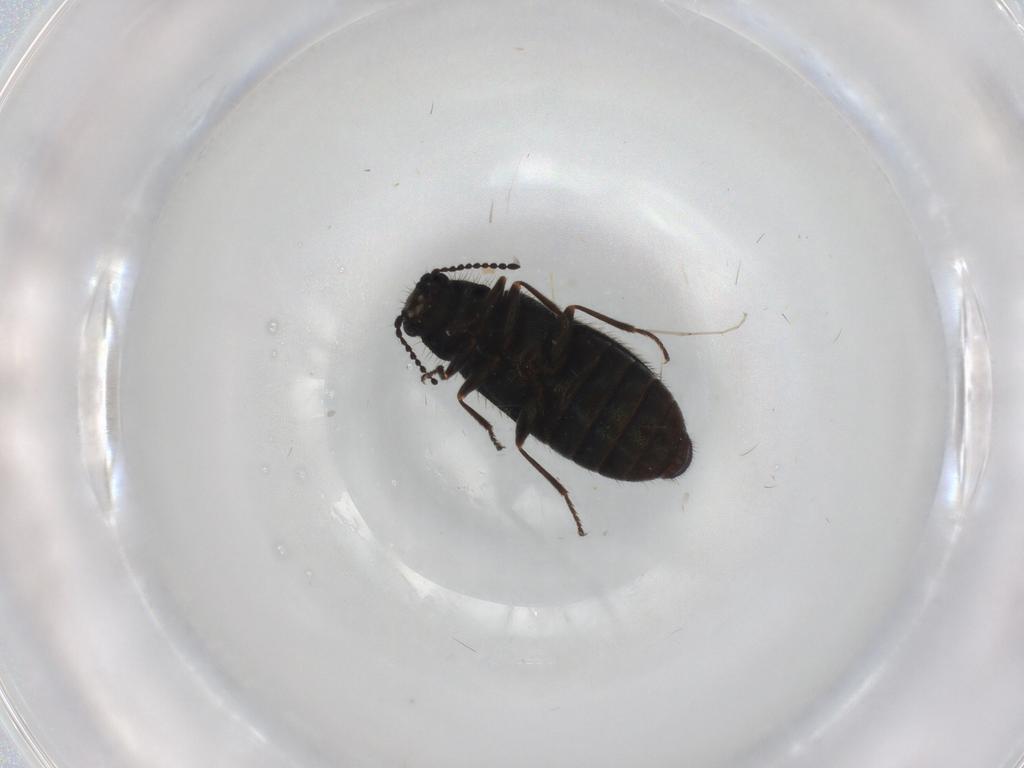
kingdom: Animalia
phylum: Arthropoda
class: Insecta
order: Coleoptera
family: Melyridae
